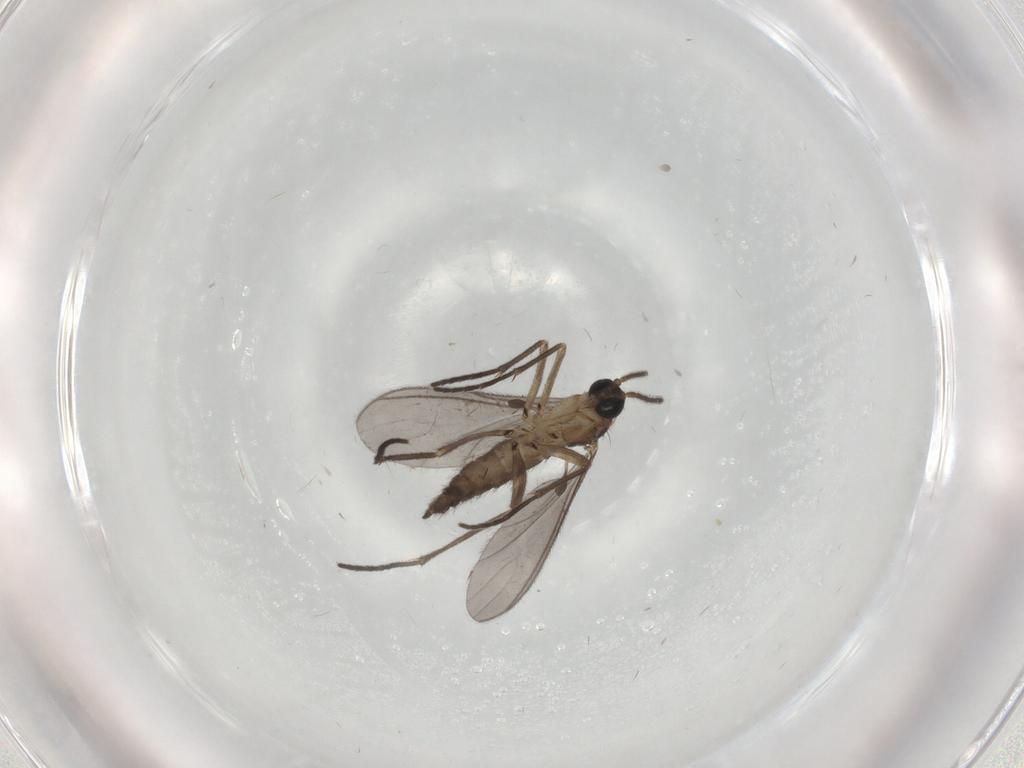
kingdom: Animalia
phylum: Arthropoda
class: Insecta
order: Diptera
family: Sciaridae
